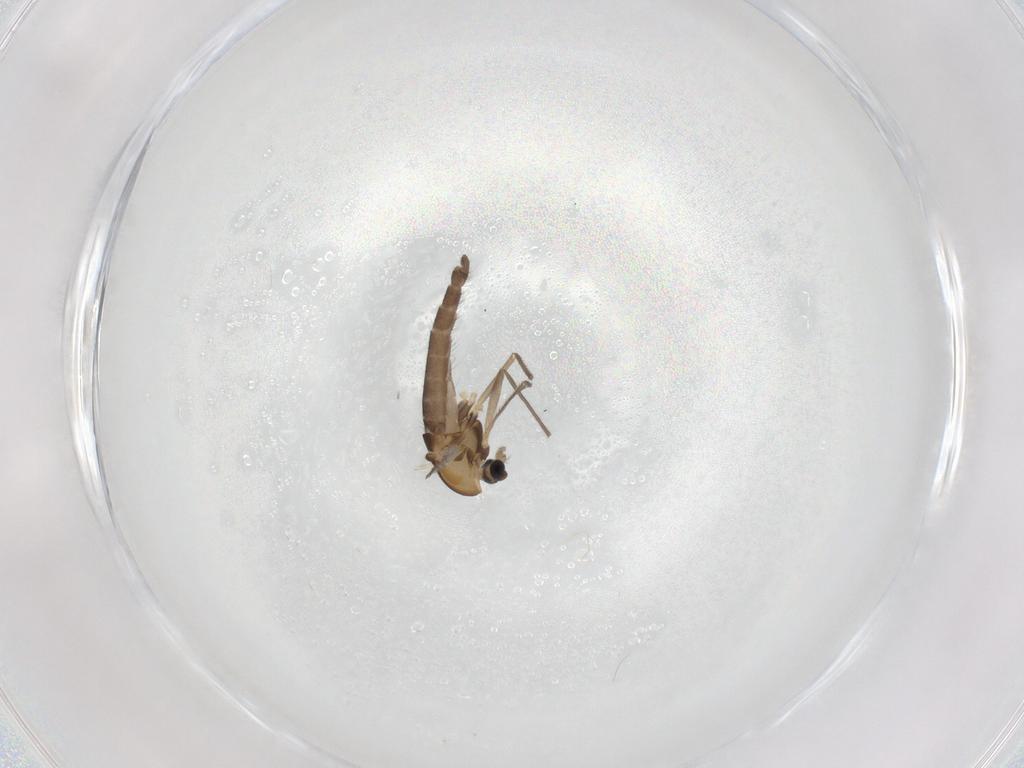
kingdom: Animalia
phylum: Arthropoda
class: Insecta
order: Diptera
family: Chironomidae
